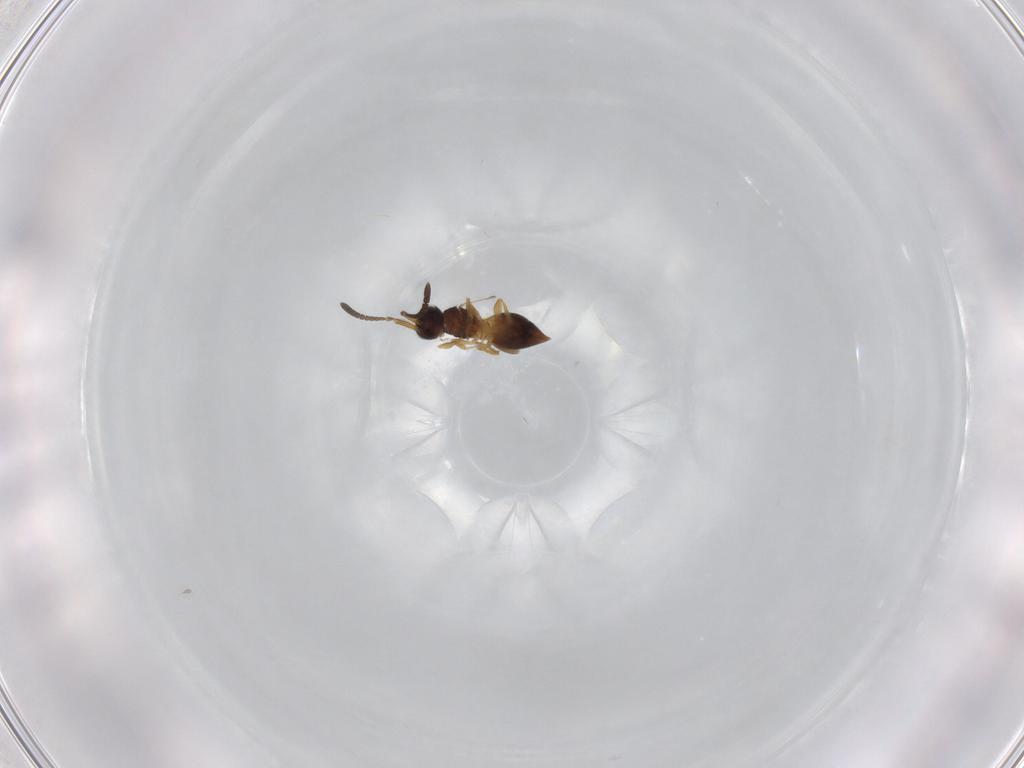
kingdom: Animalia
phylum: Arthropoda
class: Insecta
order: Hymenoptera
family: Megaspilidae
